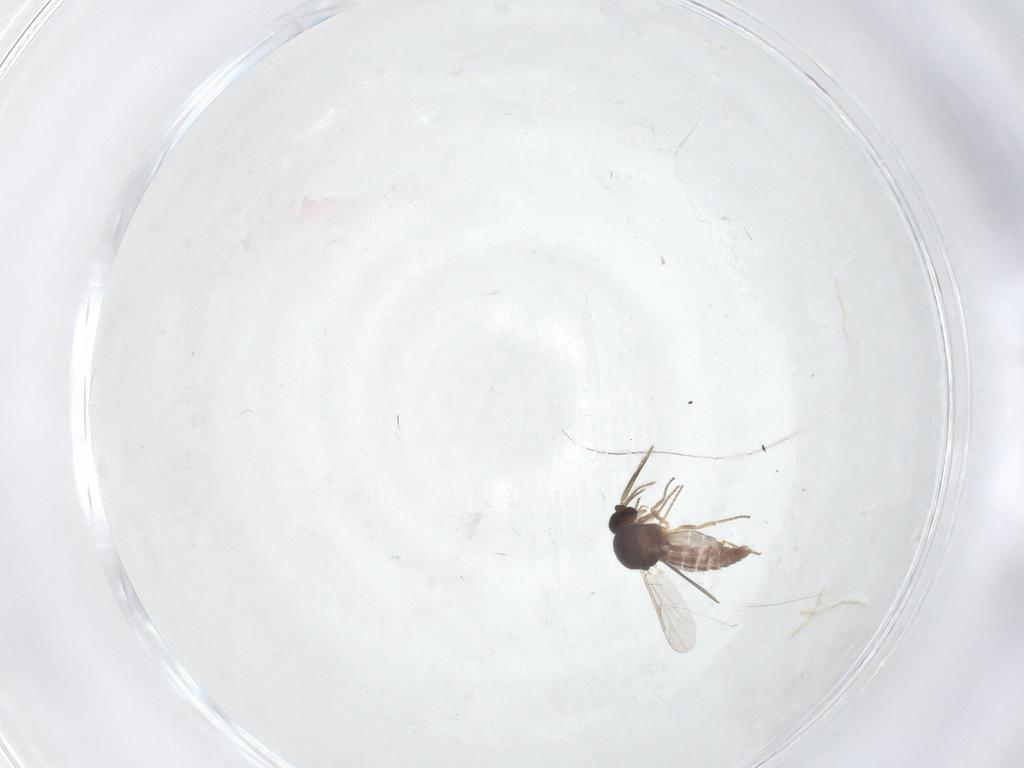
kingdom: Animalia
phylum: Arthropoda
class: Insecta
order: Diptera
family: Ceratopogonidae
